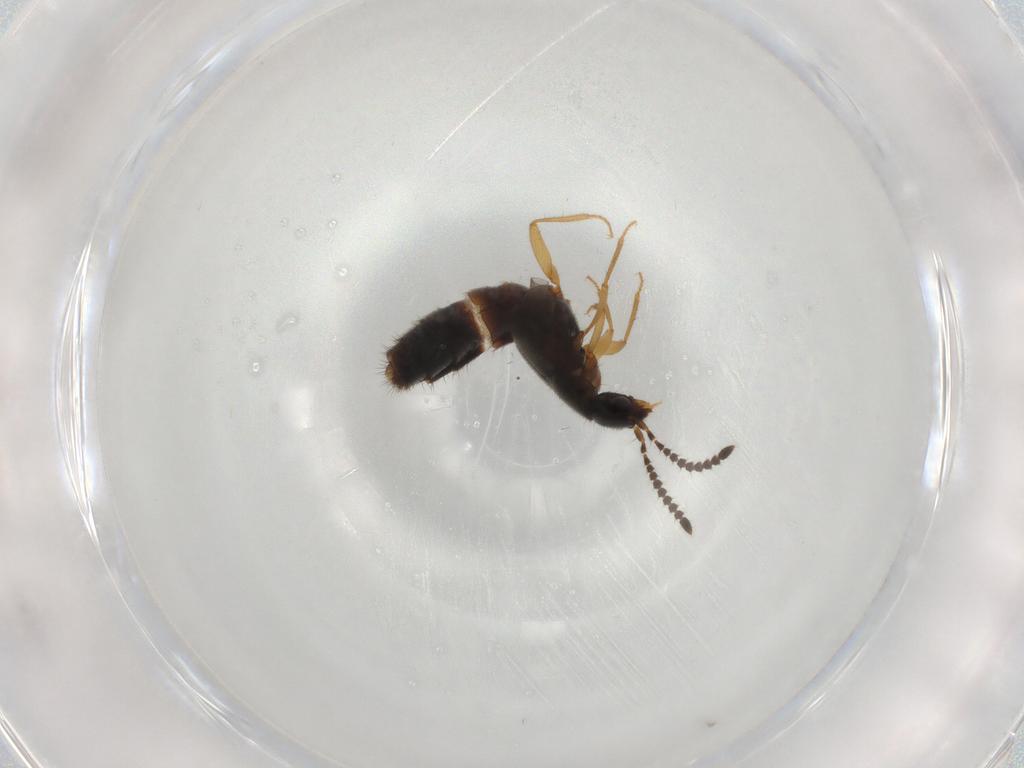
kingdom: Animalia
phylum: Arthropoda
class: Insecta
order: Coleoptera
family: Staphylinidae
